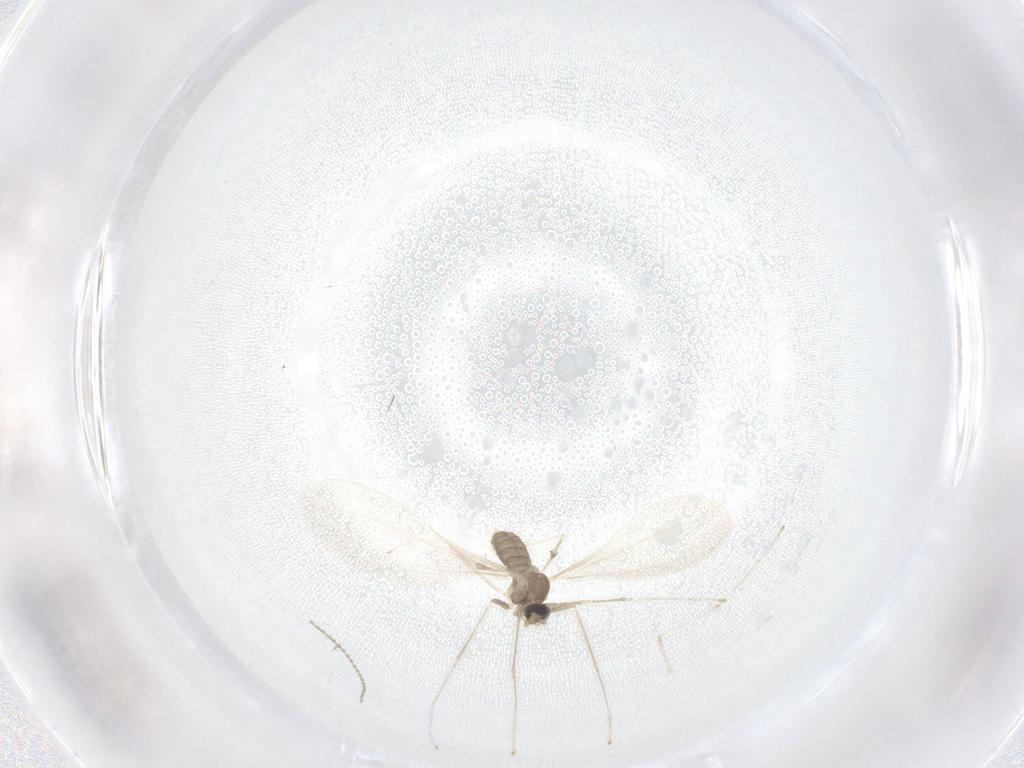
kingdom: Animalia
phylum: Arthropoda
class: Insecta
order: Diptera
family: Cecidomyiidae
